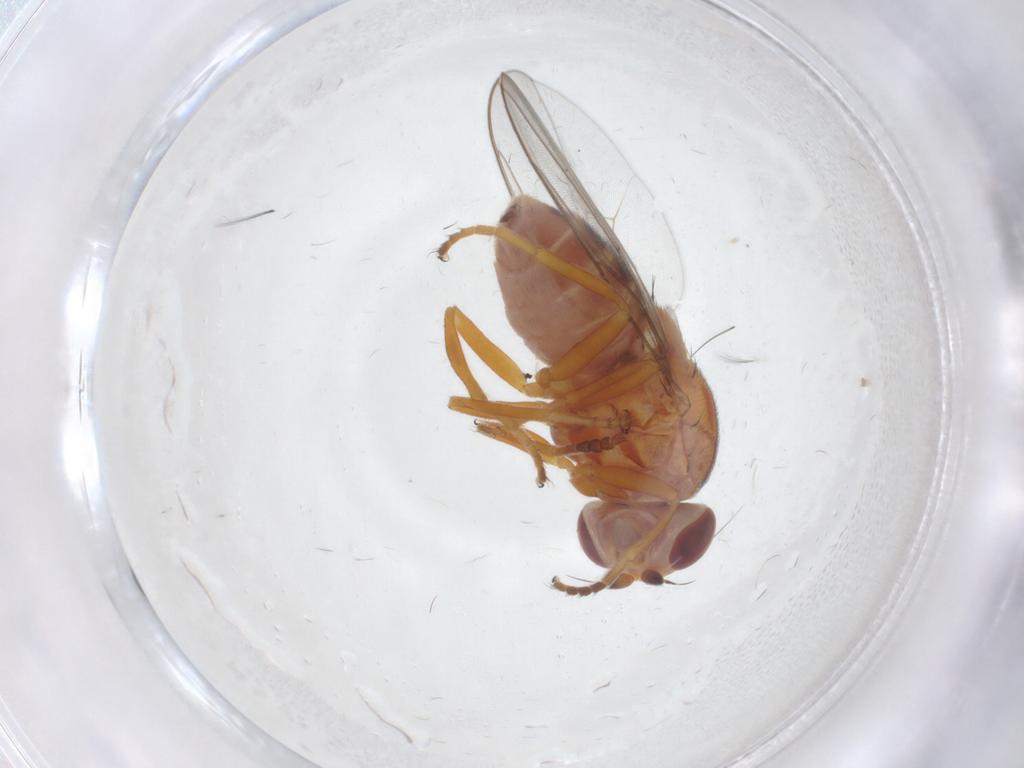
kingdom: Animalia
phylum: Arthropoda
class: Insecta
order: Diptera
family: Chloropidae
